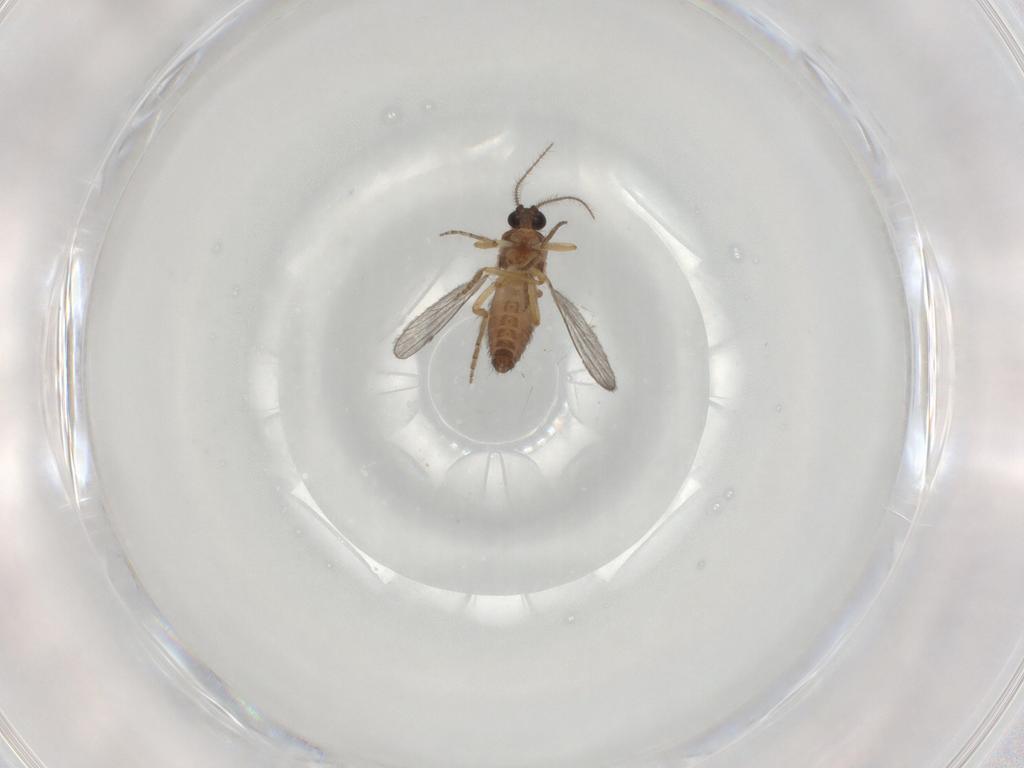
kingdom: Animalia
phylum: Arthropoda
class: Insecta
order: Diptera
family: Ceratopogonidae
